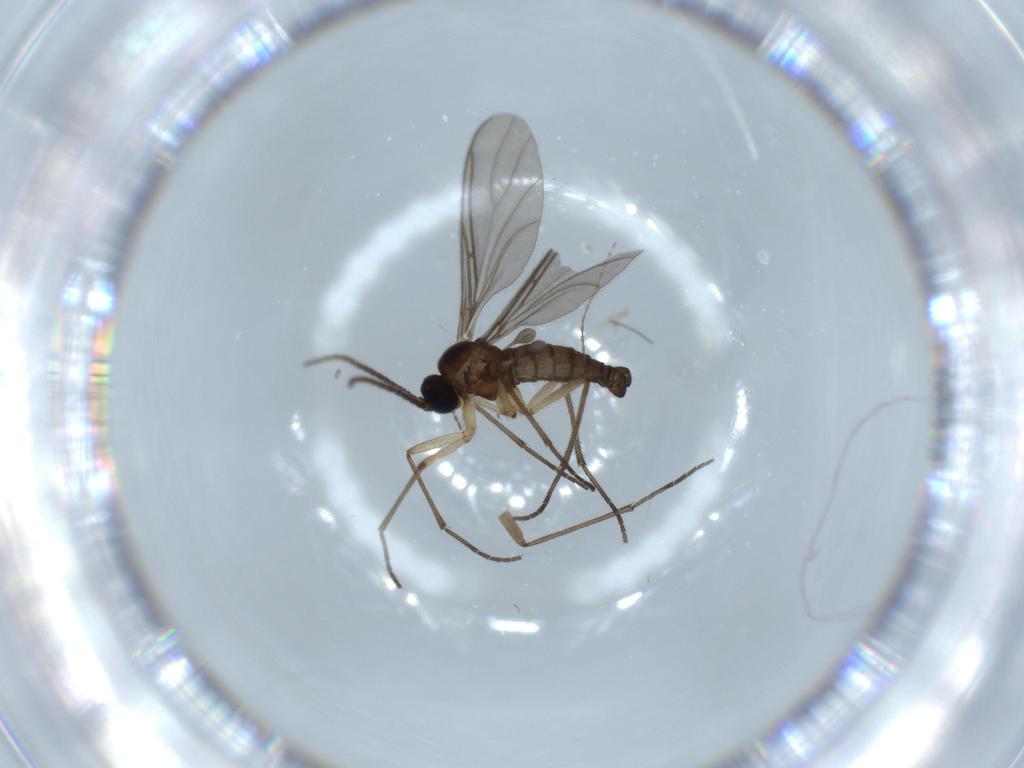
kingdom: Animalia
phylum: Arthropoda
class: Insecta
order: Diptera
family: Sciaridae
